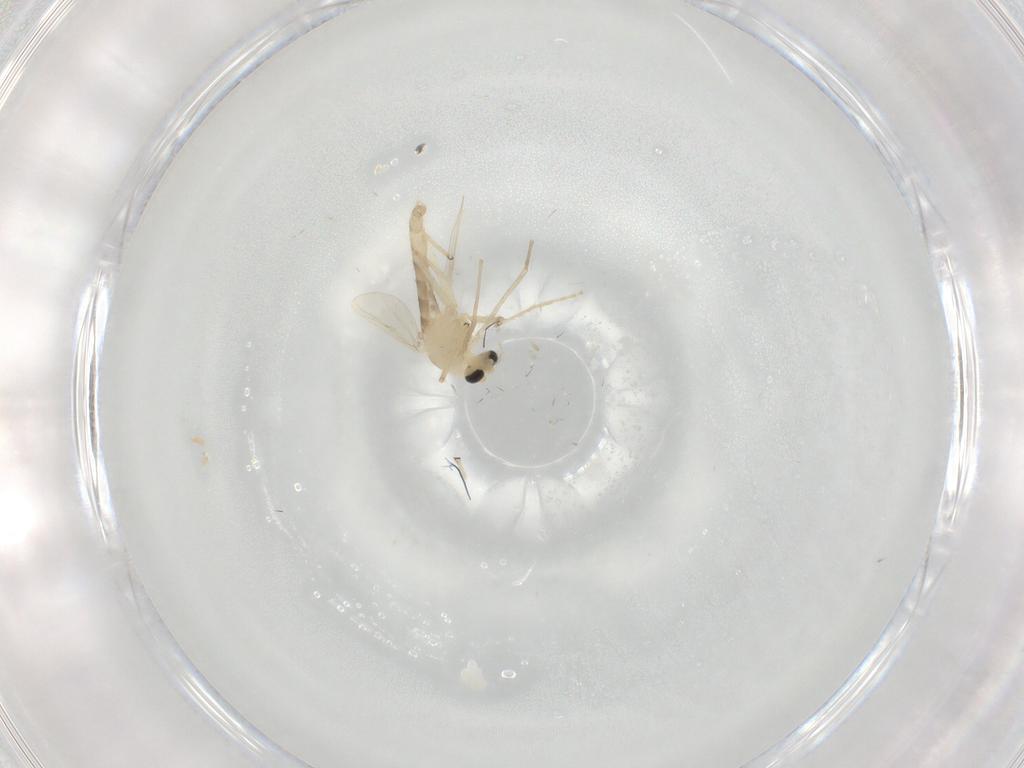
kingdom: Animalia
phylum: Arthropoda
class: Insecta
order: Diptera
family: Chironomidae
